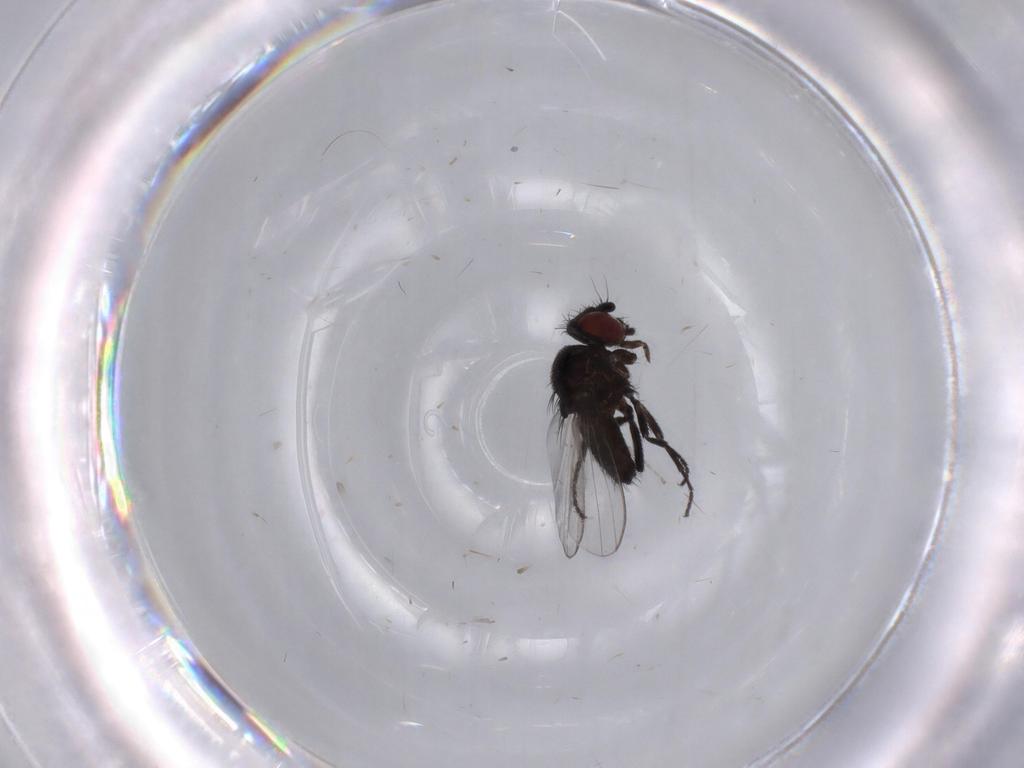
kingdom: Animalia
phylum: Arthropoda
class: Insecta
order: Diptera
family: Milichiidae
